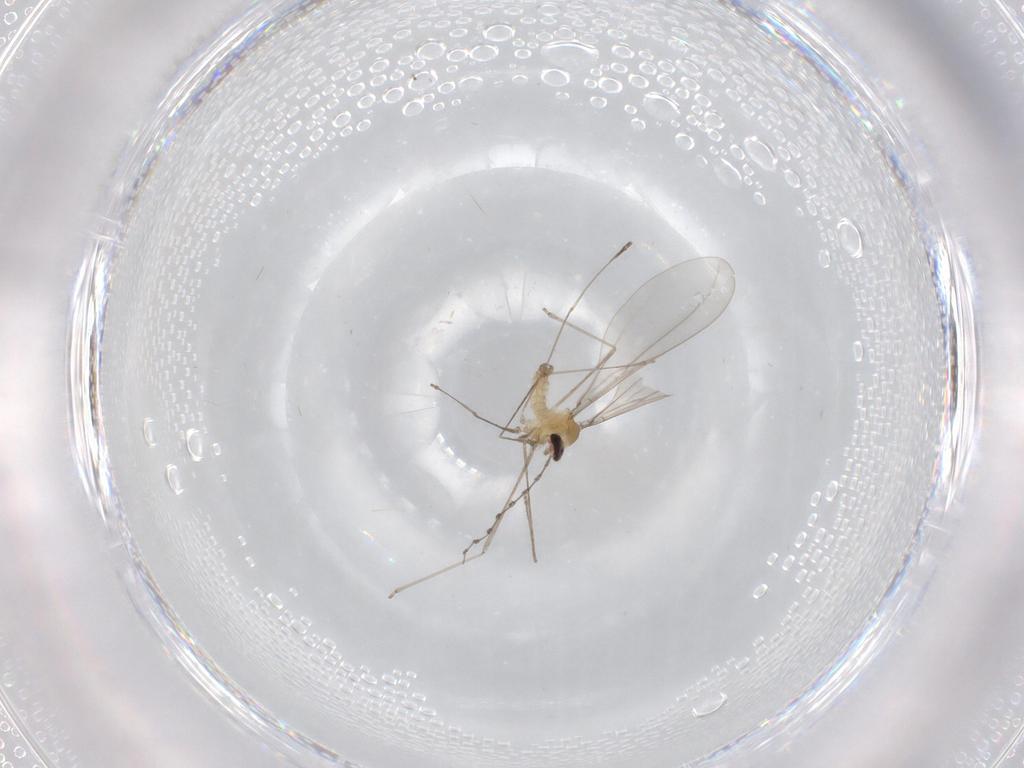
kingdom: Animalia
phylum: Arthropoda
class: Insecta
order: Diptera
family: Cecidomyiidae
